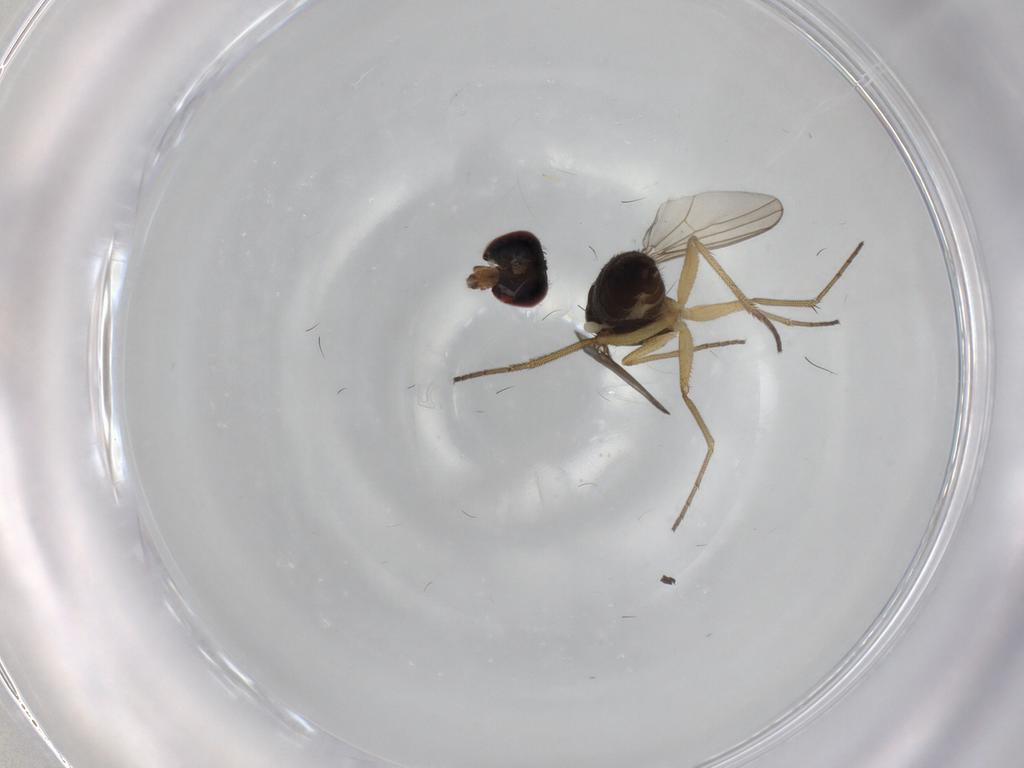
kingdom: Animalia
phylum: Arthropoda
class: Insecta
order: Diptera
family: Dolichopodidae
